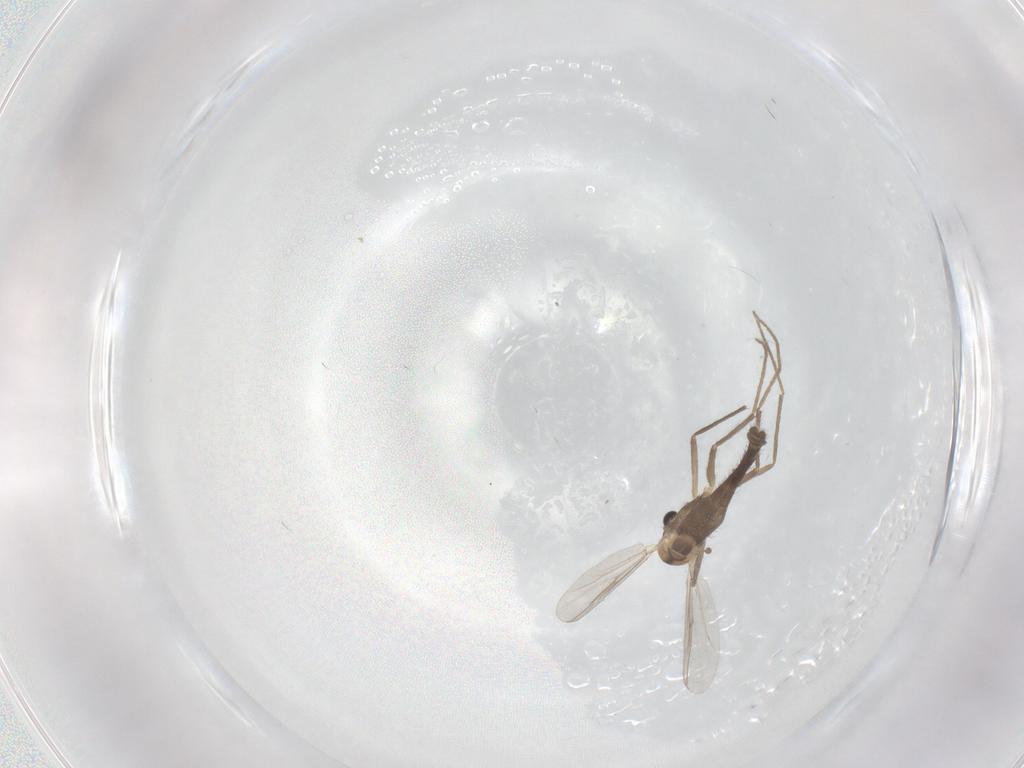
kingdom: Animalia
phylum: Arthropoda
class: Insecta
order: Diptera
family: Chironomidae
